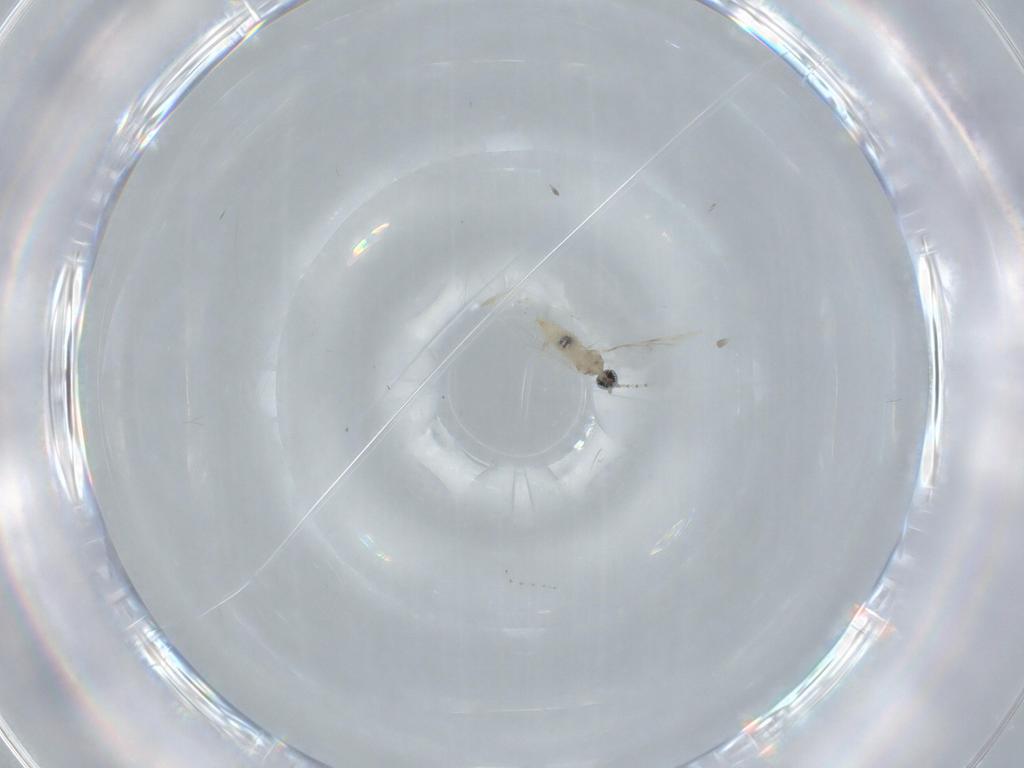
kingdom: Animalia
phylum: Arthropoda
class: Insecta
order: Diptera
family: Cecidomyiidae
